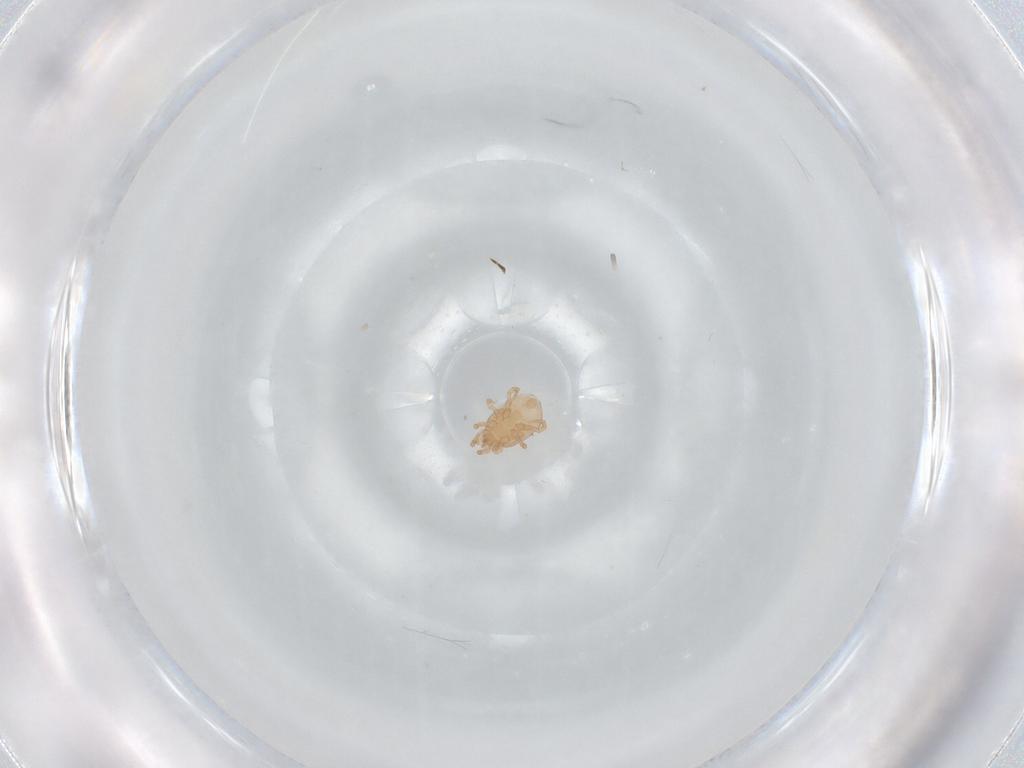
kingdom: Animalia
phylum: Arthropoda
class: Arachnida
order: Mesostigmata
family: Melicharidae
